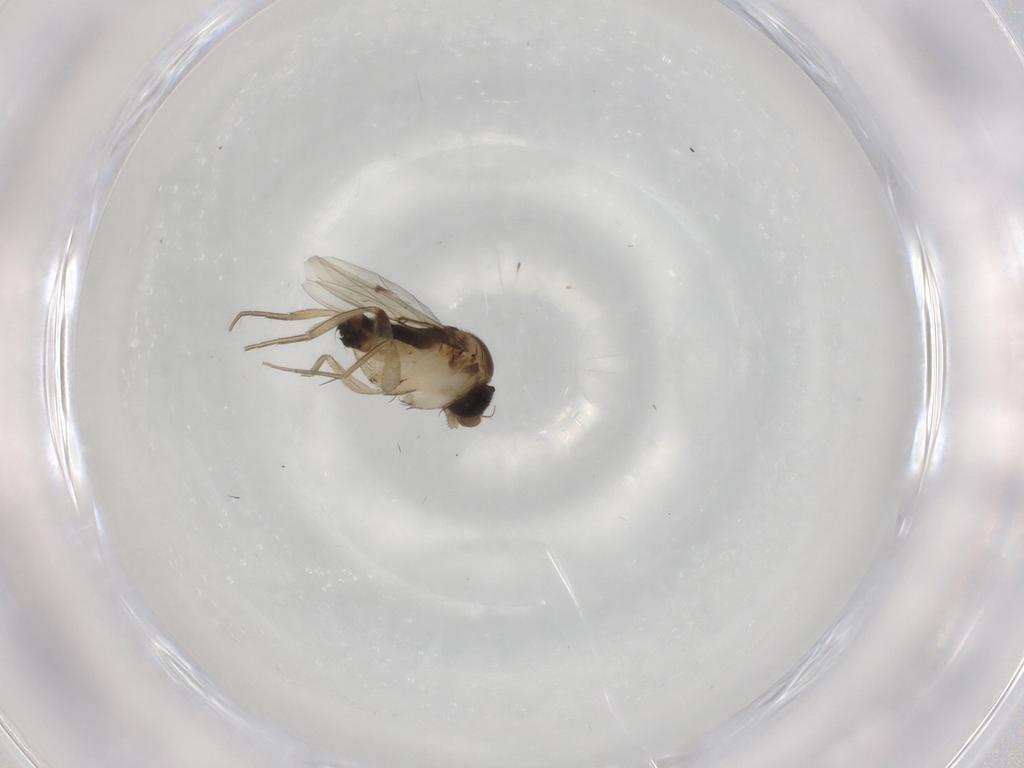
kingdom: Animalia
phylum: Arthropoda
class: Insecta
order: Diptera
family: Phoridae
